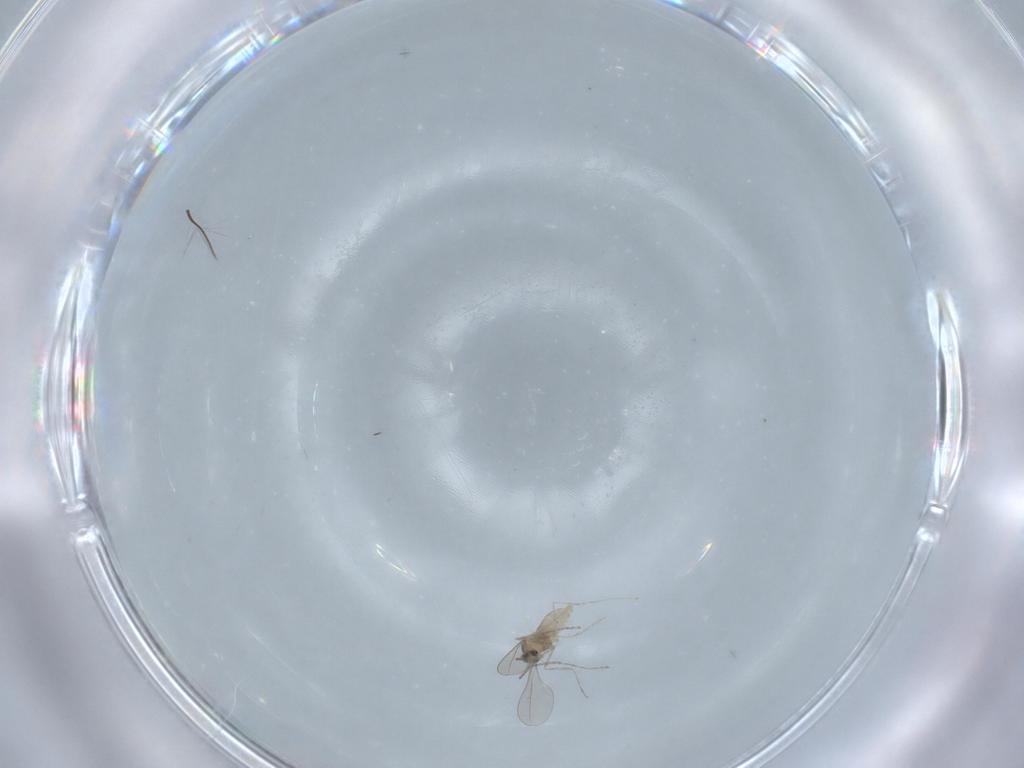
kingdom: Animalia
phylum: Arthropoda
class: Insecta
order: Diptera
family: Cecidomyiidae
